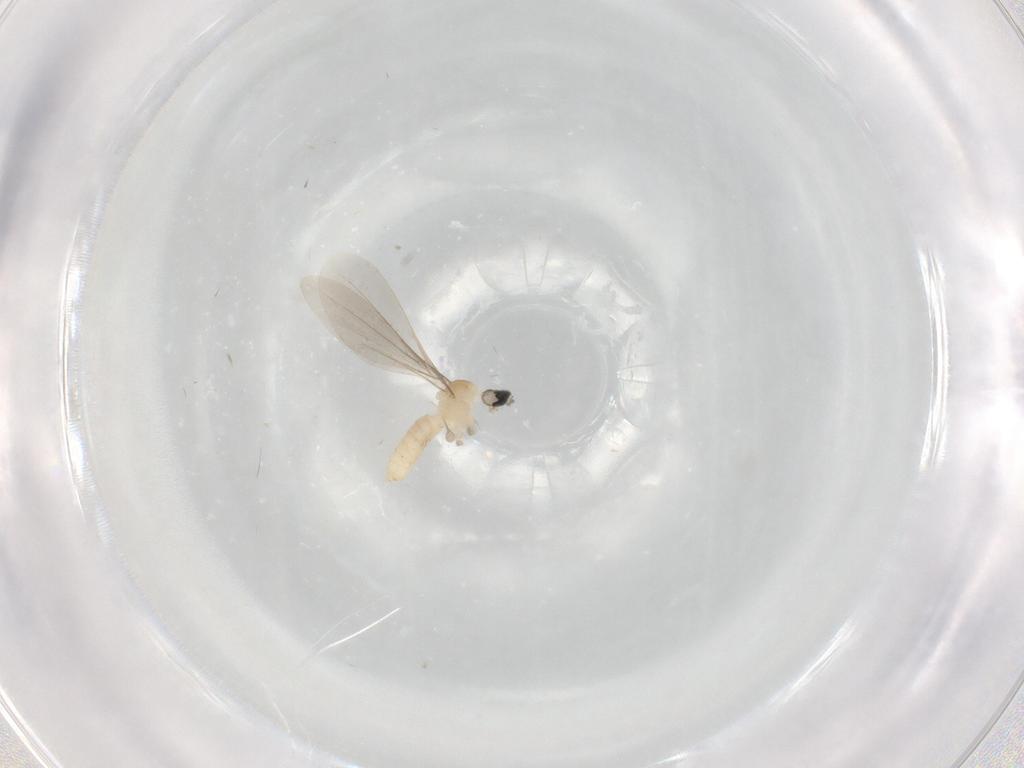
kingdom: Animalia
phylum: Arthropoda
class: Insecta
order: Diptera
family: Cecidomyiidae
